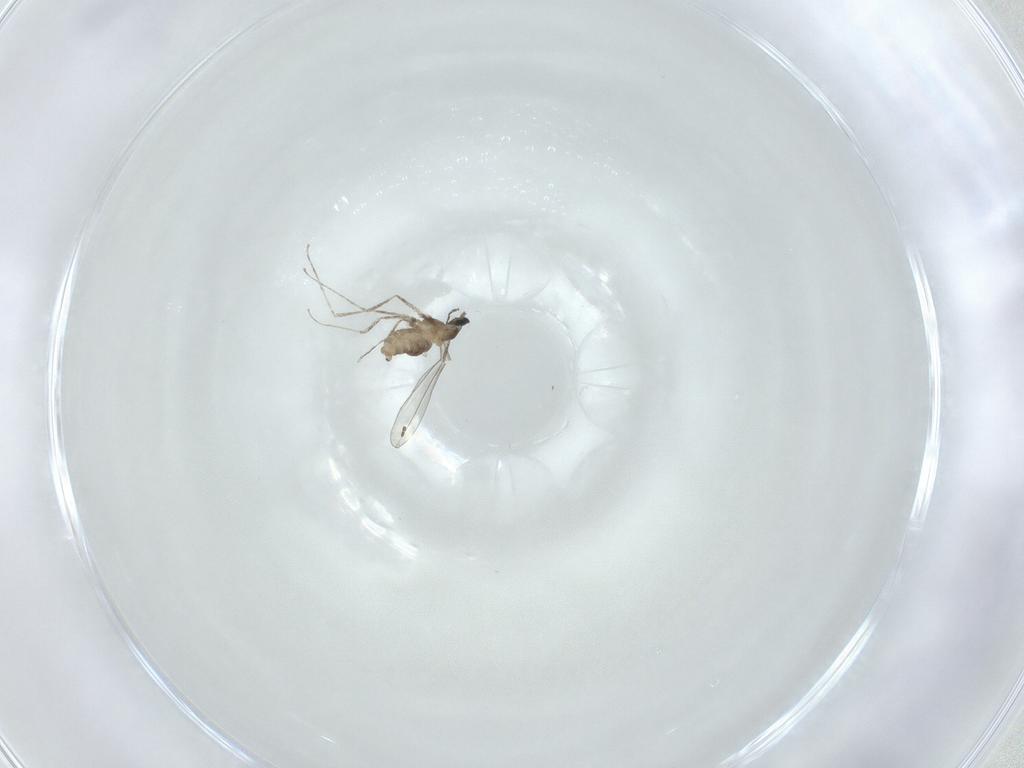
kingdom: Animalia
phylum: Arthropoda
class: Insecta
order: Diptera
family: Cecidomyiidae
